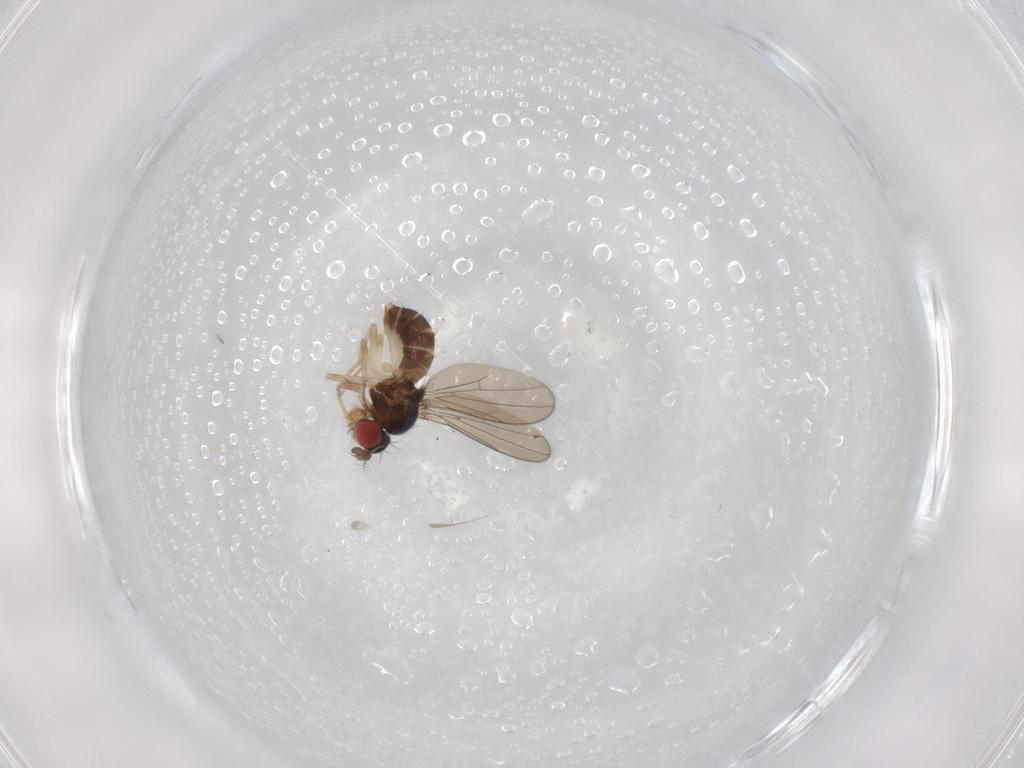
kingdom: Animalia
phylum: Arthropoda
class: Insecta
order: Diptera
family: Drosophilidae
